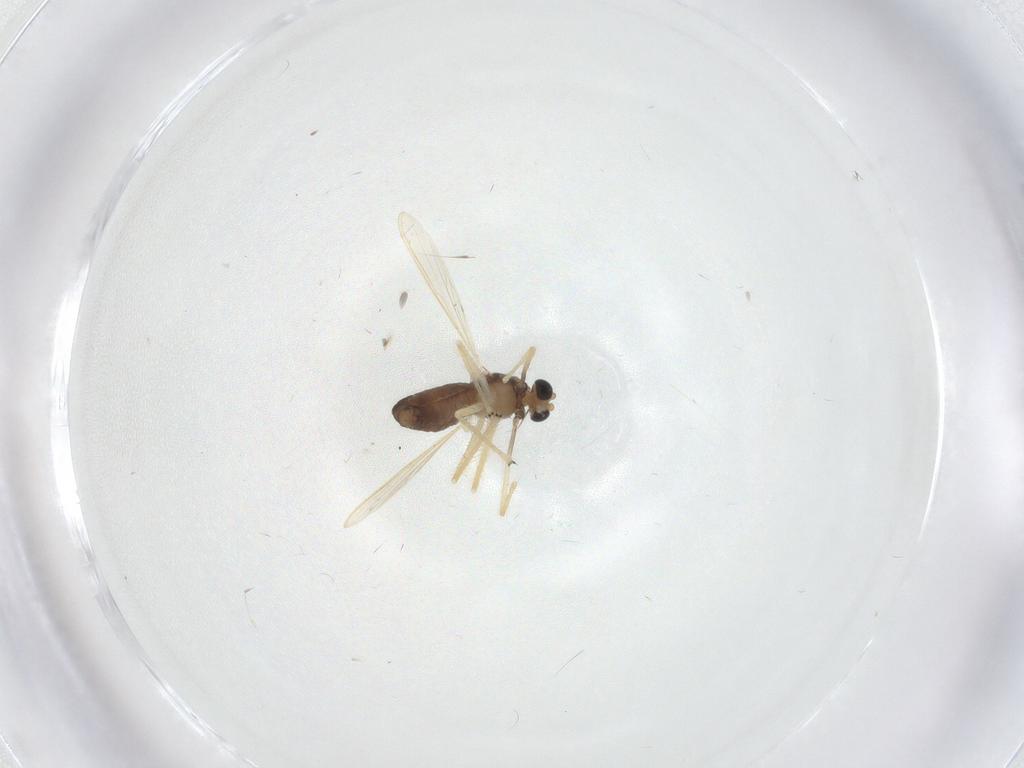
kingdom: Animalia
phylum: Arthropoda
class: Insecta
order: Diptera
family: Chironomidae
